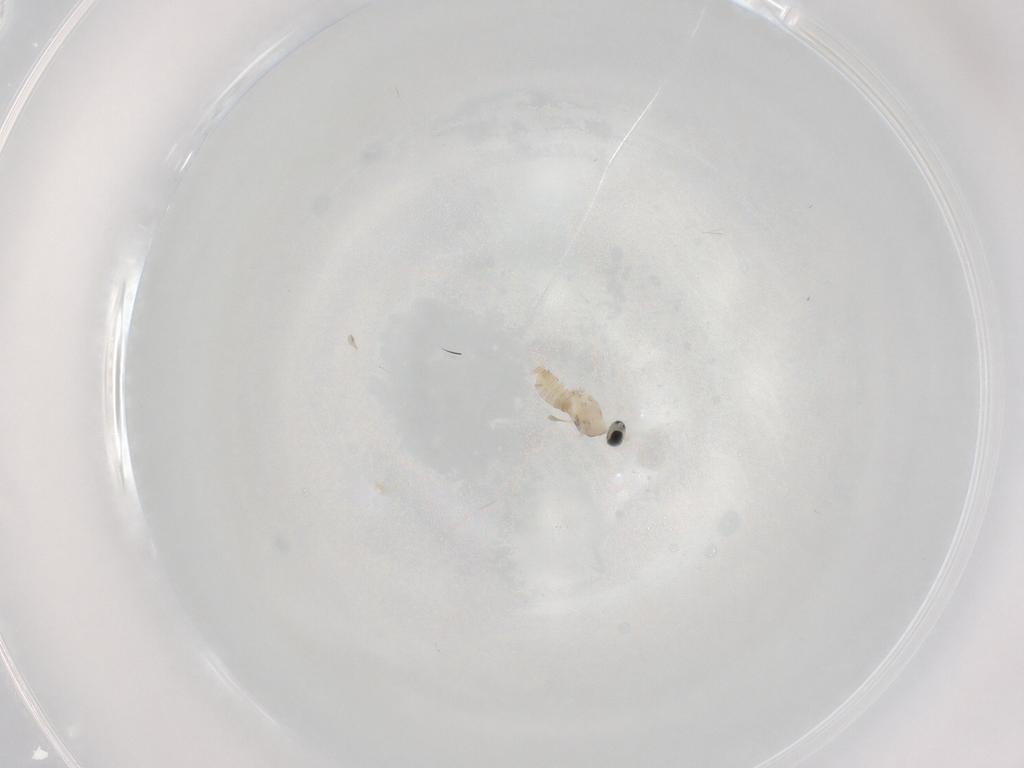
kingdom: Animalia
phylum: Arthropoda
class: Insecta
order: Diptera
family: Cecidomyiidae
